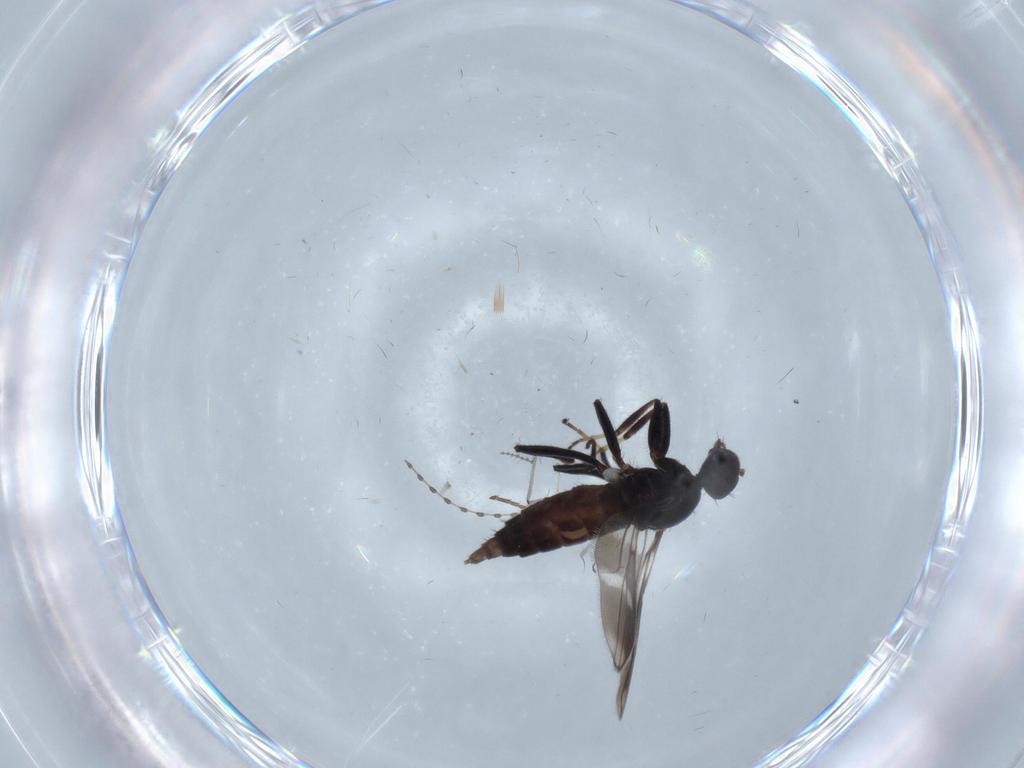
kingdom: Animalia
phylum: Arthropoda
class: Insecta
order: Diptera
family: Hybotidae
